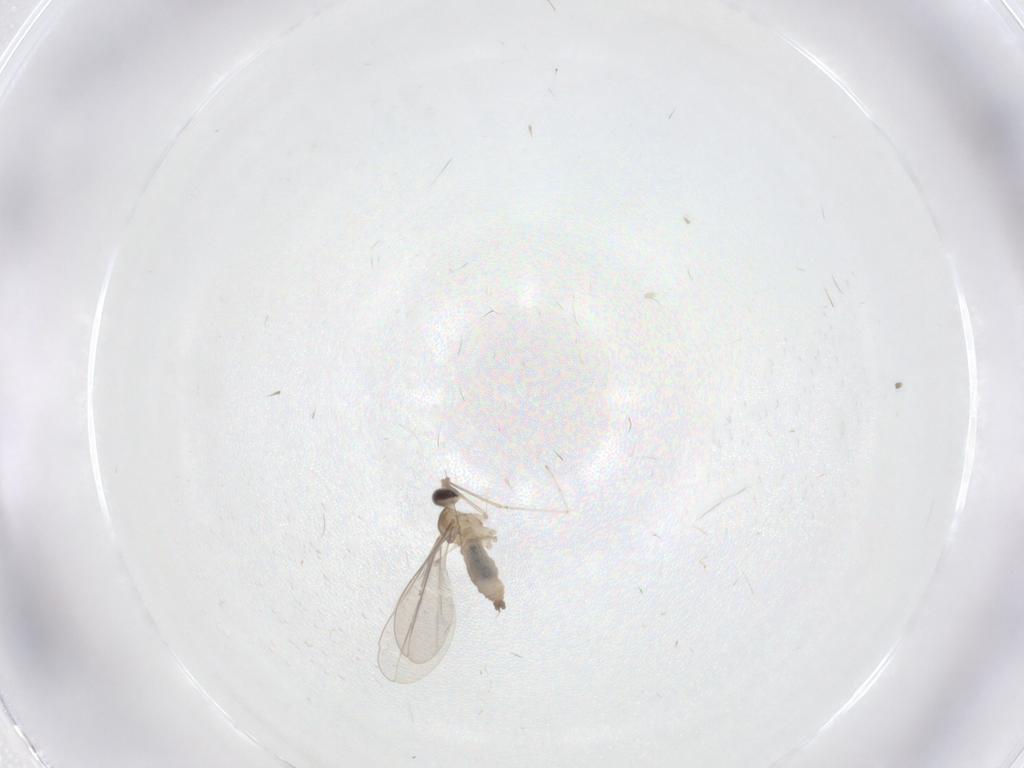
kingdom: Animalia
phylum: Arthropoda
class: Insecta
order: Diptera
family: Cecidomyiidae
